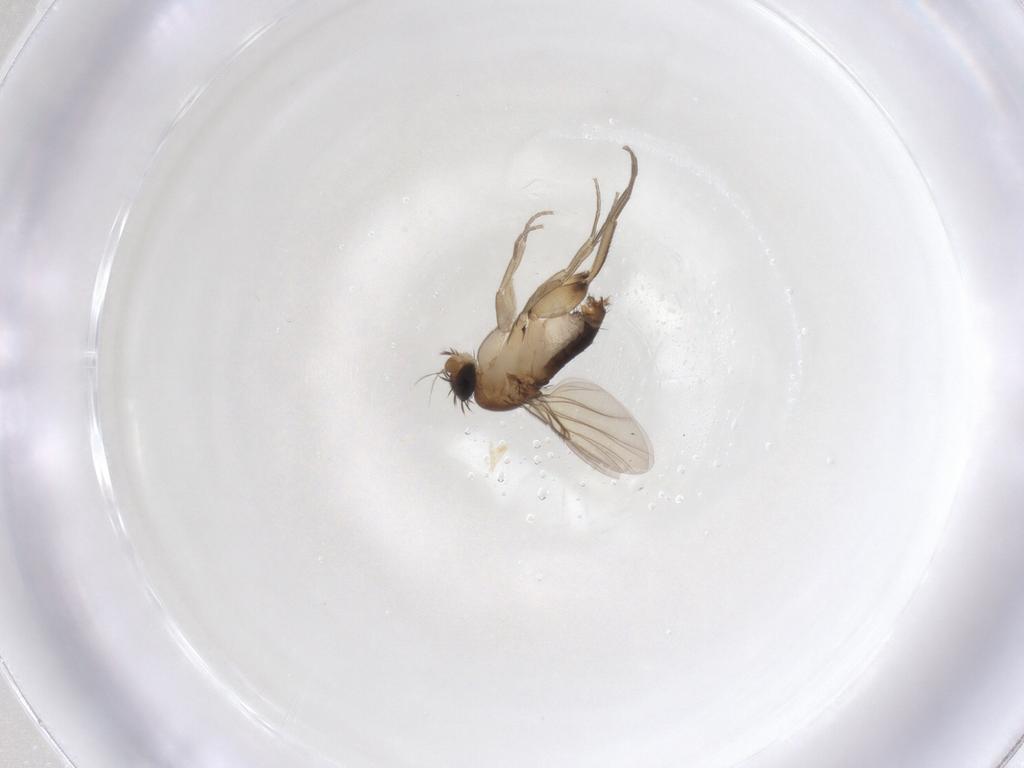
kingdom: Animalia
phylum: Arthropoda
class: Insecta
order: Diptera
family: Phoridae
